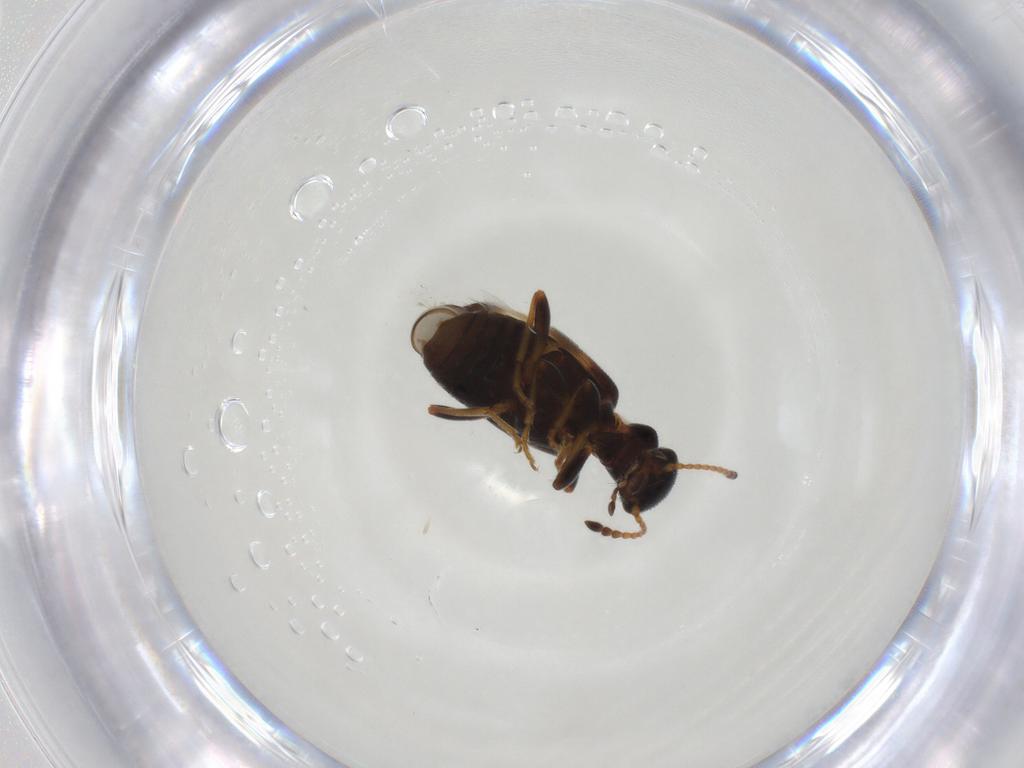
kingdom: Animalia
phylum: Arthropoda
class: Insecta
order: Coleoptera
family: Anthicidae
